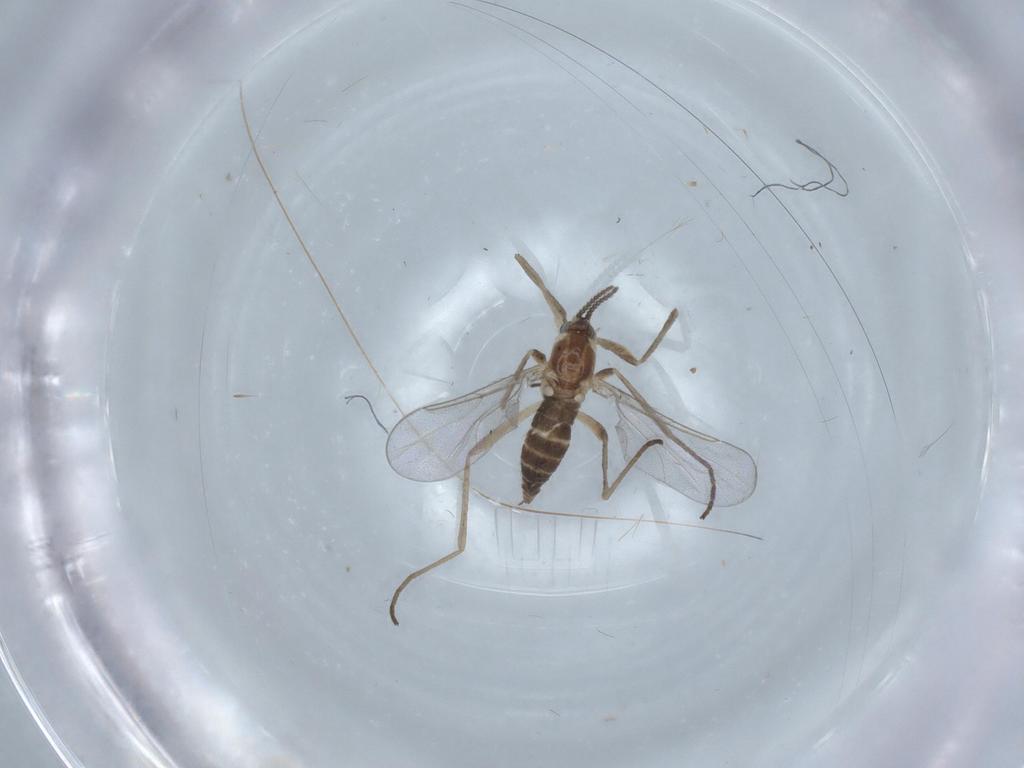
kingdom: Animalia
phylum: Arthropoda
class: Insecta
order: Diptera
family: Cecidomyiidae
